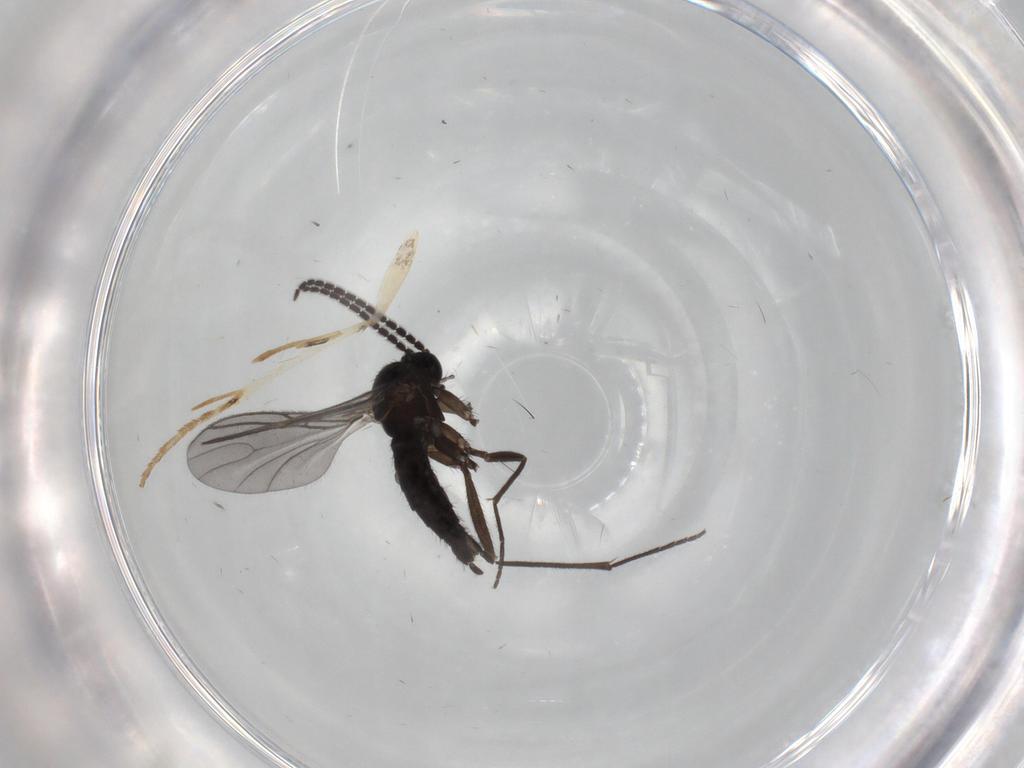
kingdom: Animalia
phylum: Arthropoda
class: Insecta
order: Diptera
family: Sciaridae
